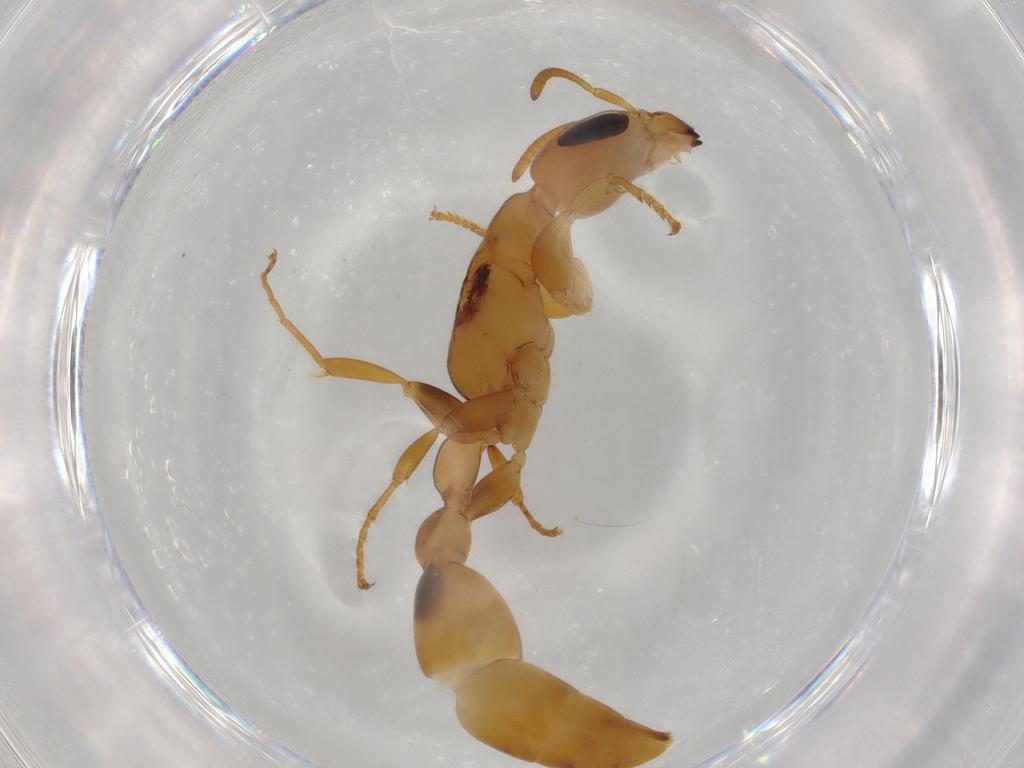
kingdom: Animalia
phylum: Arthropoda
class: Insecta
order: Hymenoptera
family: Formicidae
